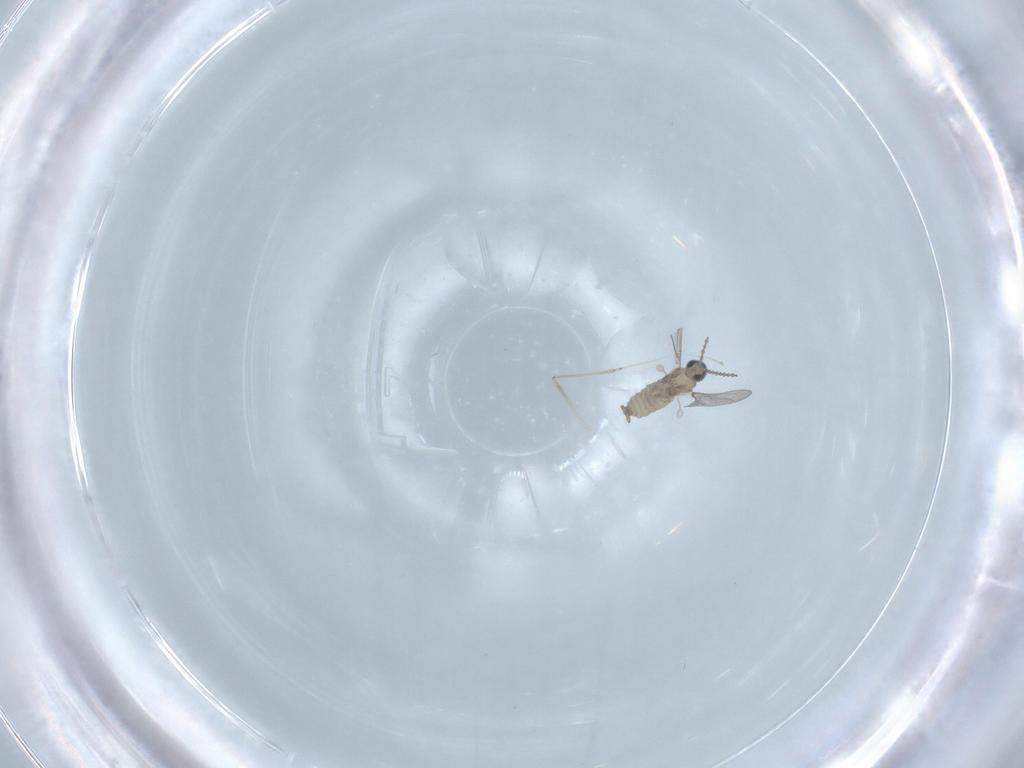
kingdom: Animalia
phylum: Arthropoda
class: Insecta
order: Diptera
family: Cecidomyiidae
